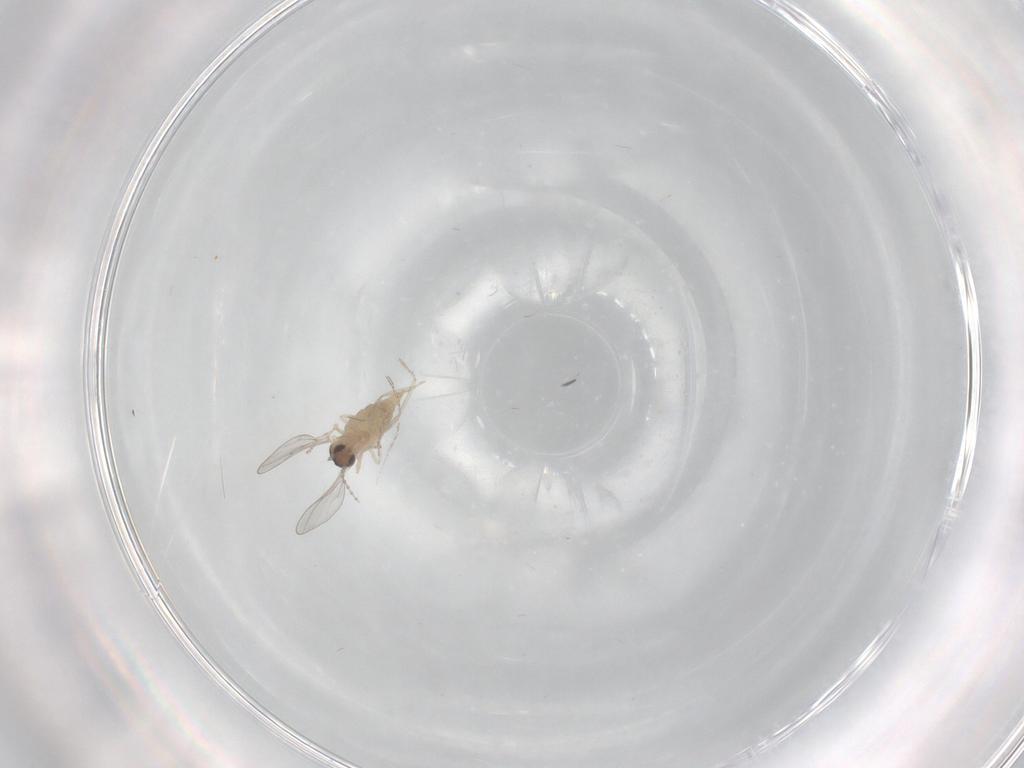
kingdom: Animalia
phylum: Arthropoda
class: Insecta
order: Diptera
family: Cecidomyiidae
